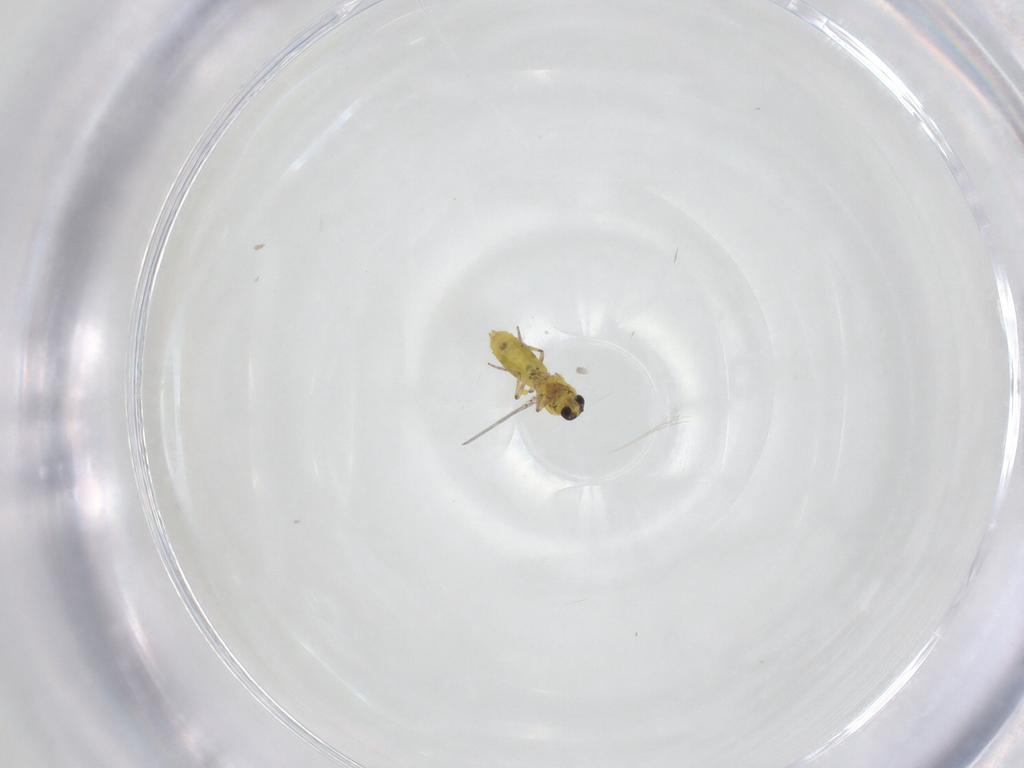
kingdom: Animalia
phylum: Arthropoda
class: Insecta
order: Diptera
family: Ceratopogonidae
